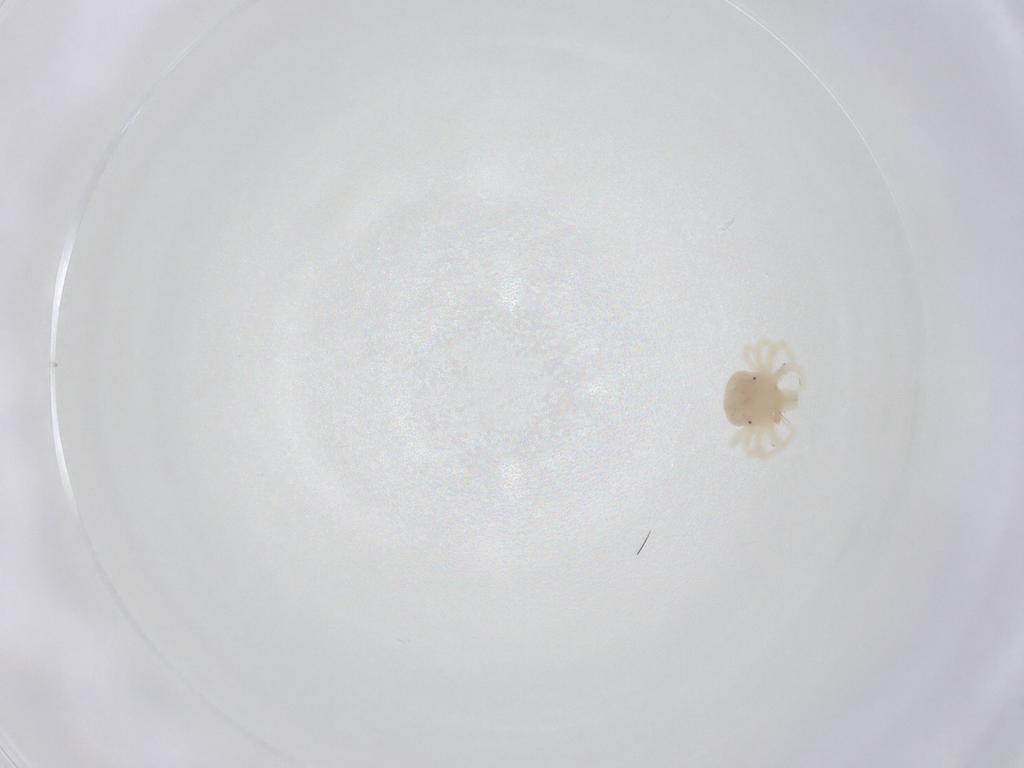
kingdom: Animalia
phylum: Arthropoda
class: Arachnida
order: Trombidiformes
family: Anystidae
